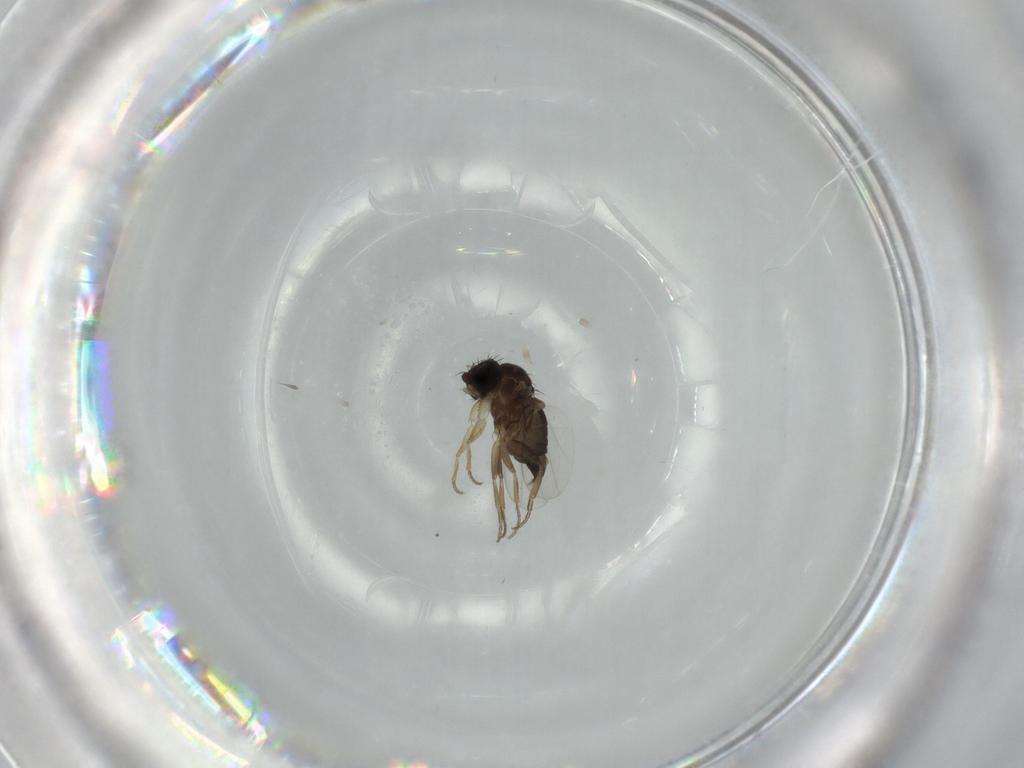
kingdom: Animalia
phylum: Arthropoda
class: Insecta
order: Diptera
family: Phoridae
